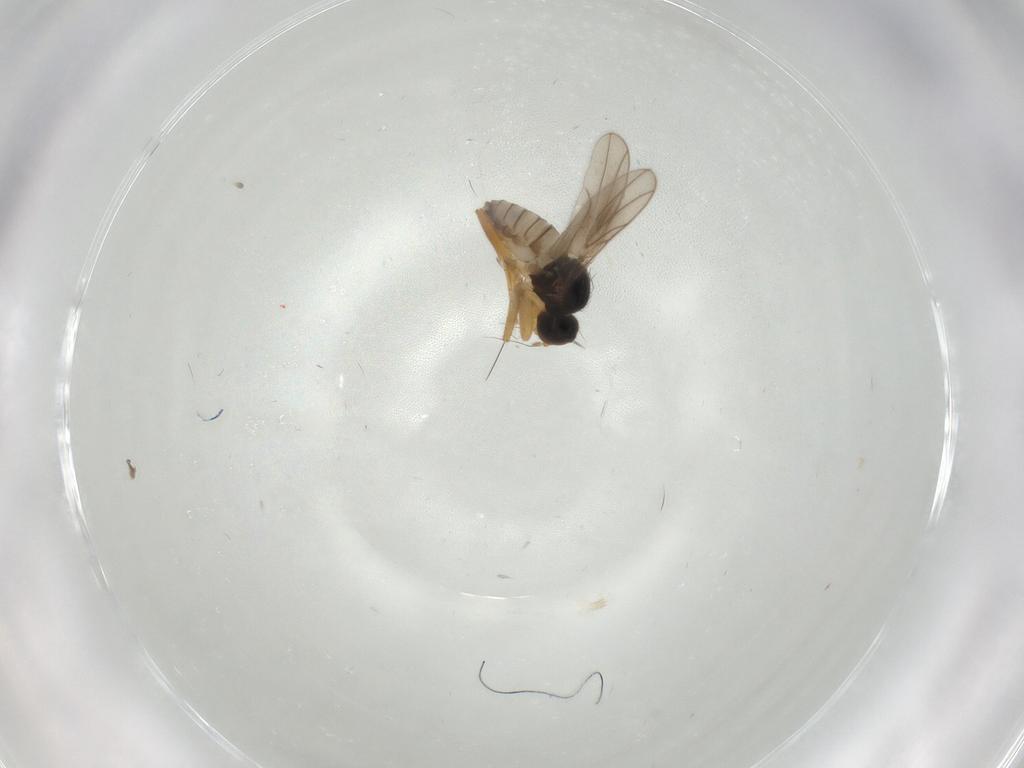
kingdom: Animalia
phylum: Arthropoda
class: Insecta
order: Diptera
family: Hybotidae
